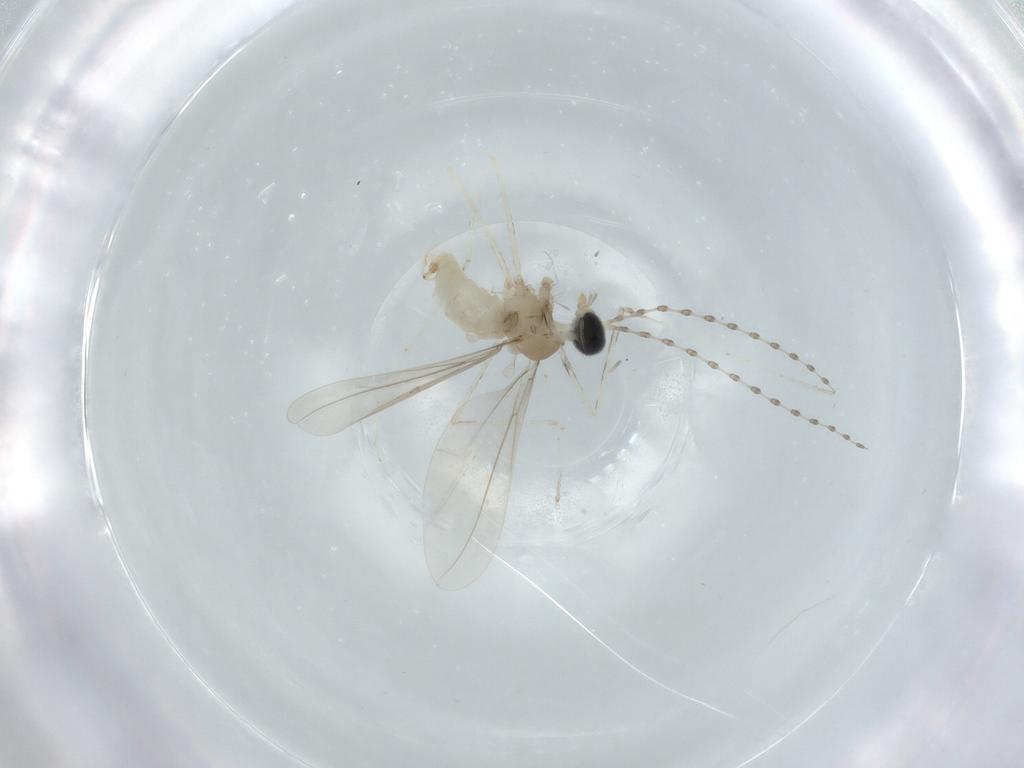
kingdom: Animalia
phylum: Arthropoda
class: Insecta
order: Diptera
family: Cecidomyiidae
